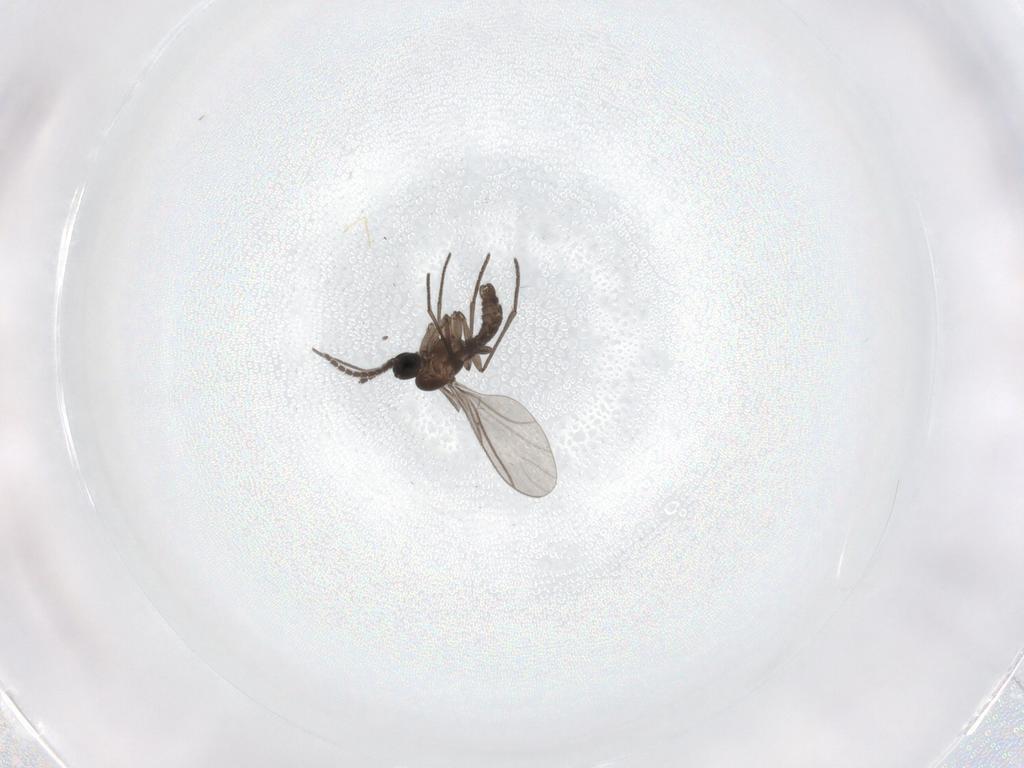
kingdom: Animalia
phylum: Arthropoda
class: Insecta
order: Diptera
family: Cecidomyiidae
